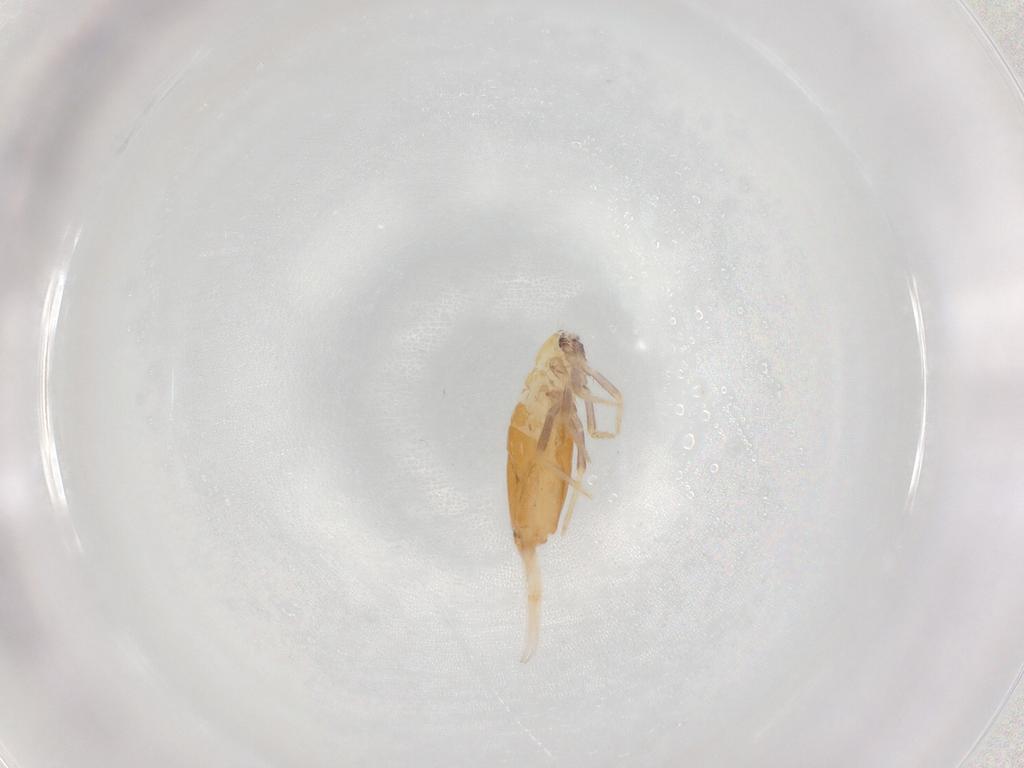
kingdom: Animalia
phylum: Arthropoda
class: Collembola
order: Entomobryomorpha
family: Entomobryidae
